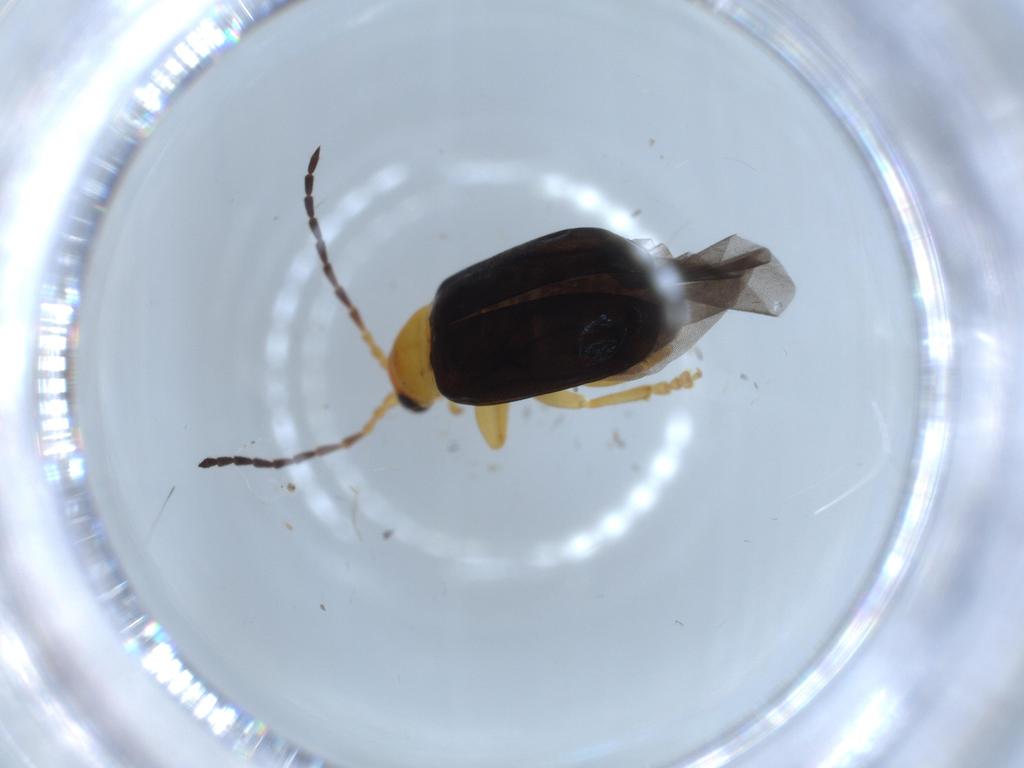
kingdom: Animalia
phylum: Arthropoda
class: Insecta
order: Coleoptera
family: Chrysomelidae
